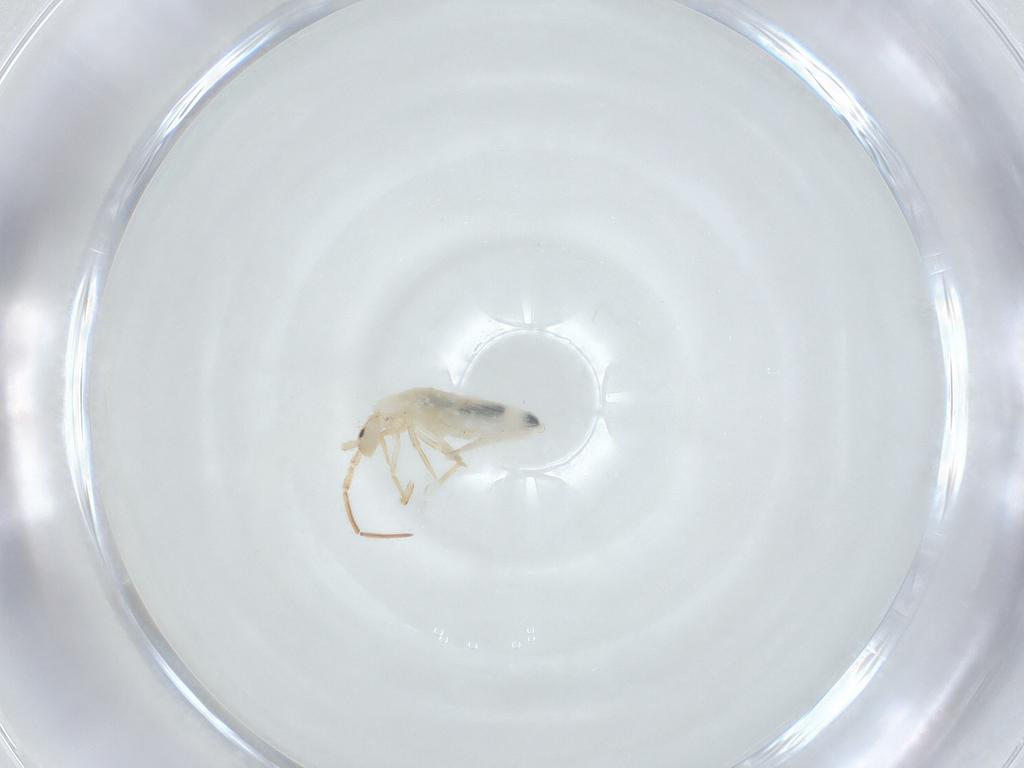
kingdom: Animalia
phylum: Arthropoda
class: Collembola
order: Entomobryomorpha
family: Entomobryidae
